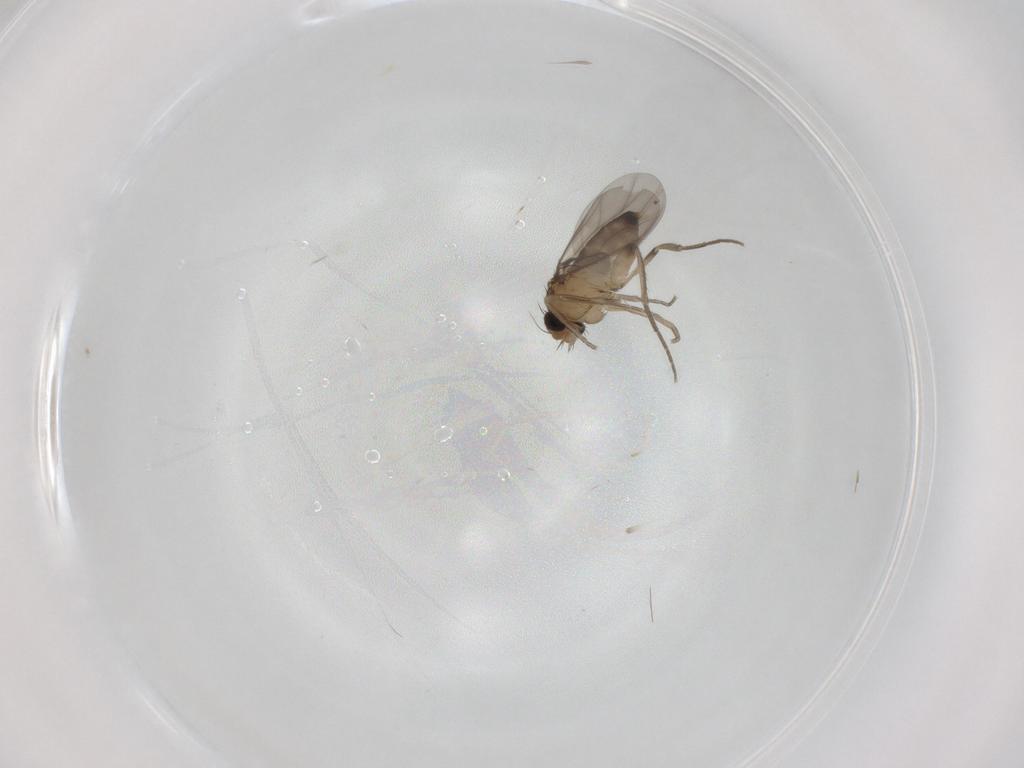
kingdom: Animalia
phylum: Arthropoda
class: Insecta
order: Diptera
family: Phoridae
